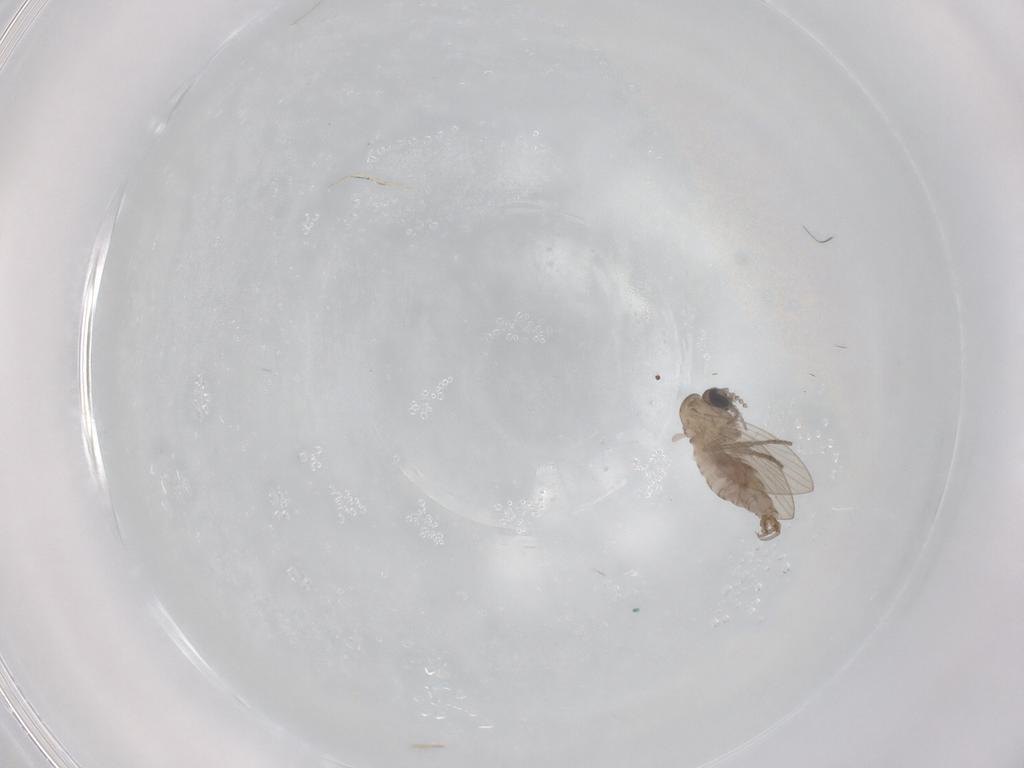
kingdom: Animalia
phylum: Arthropoda
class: Insecta
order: Diptera
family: Psychodidae
